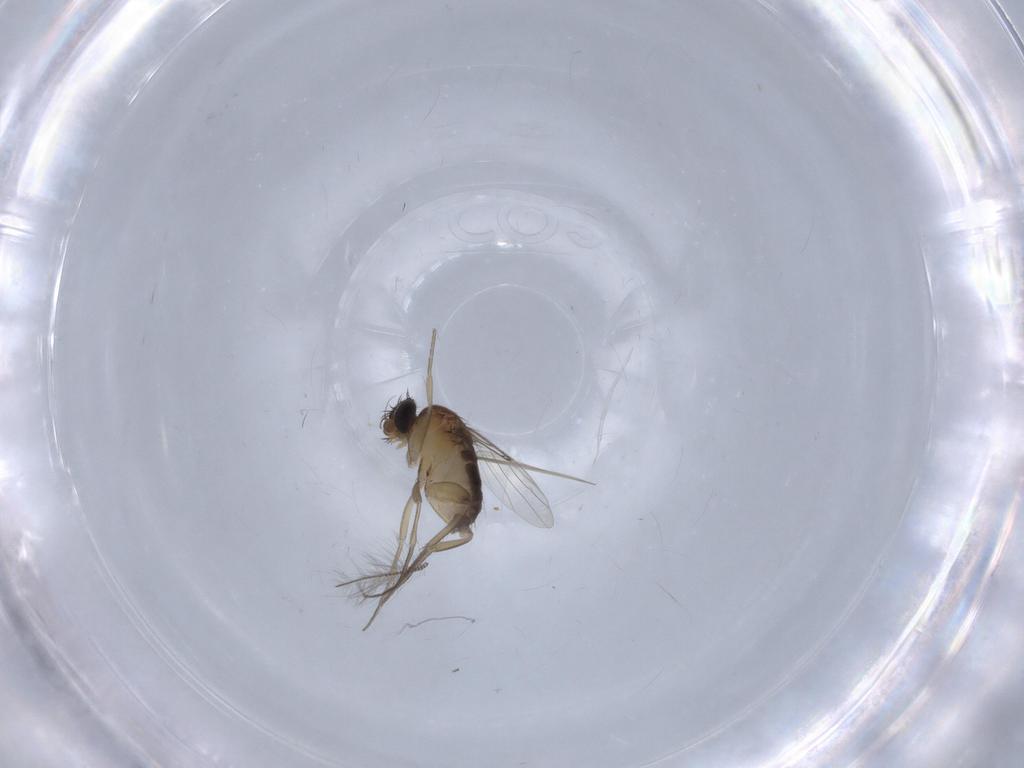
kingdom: Animalia
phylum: Arthropoda
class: Insecta
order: Diptera
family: Phoridae
